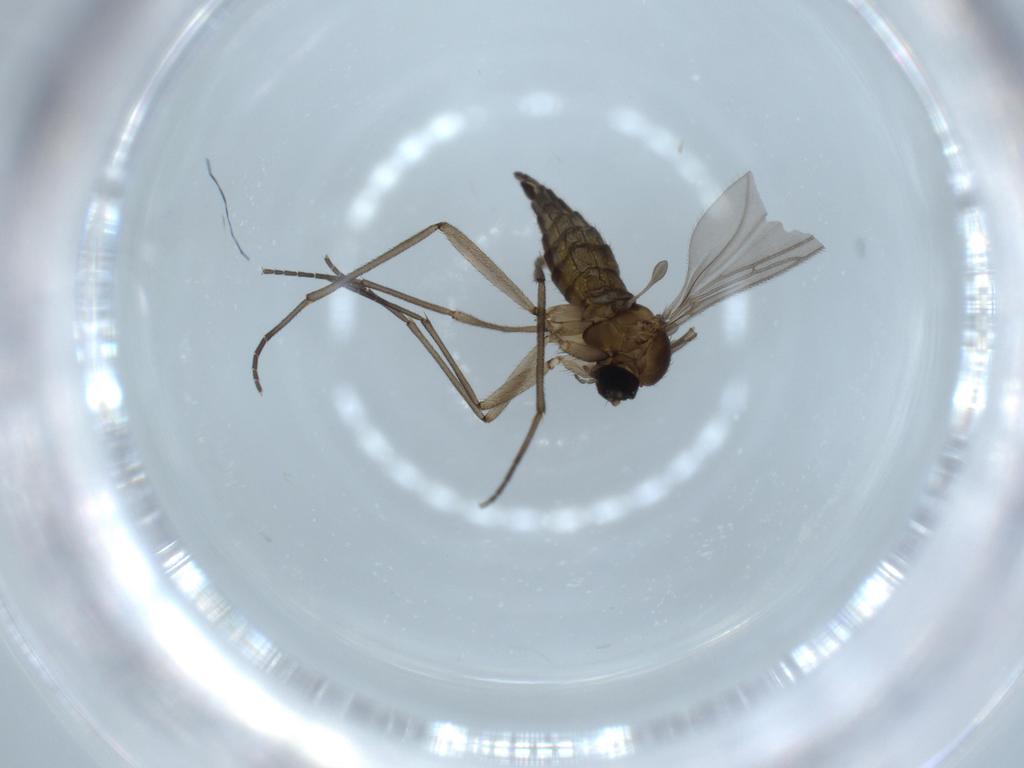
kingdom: Animalia
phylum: Arthropoda
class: Insecta
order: Diptera
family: Sciaridae
